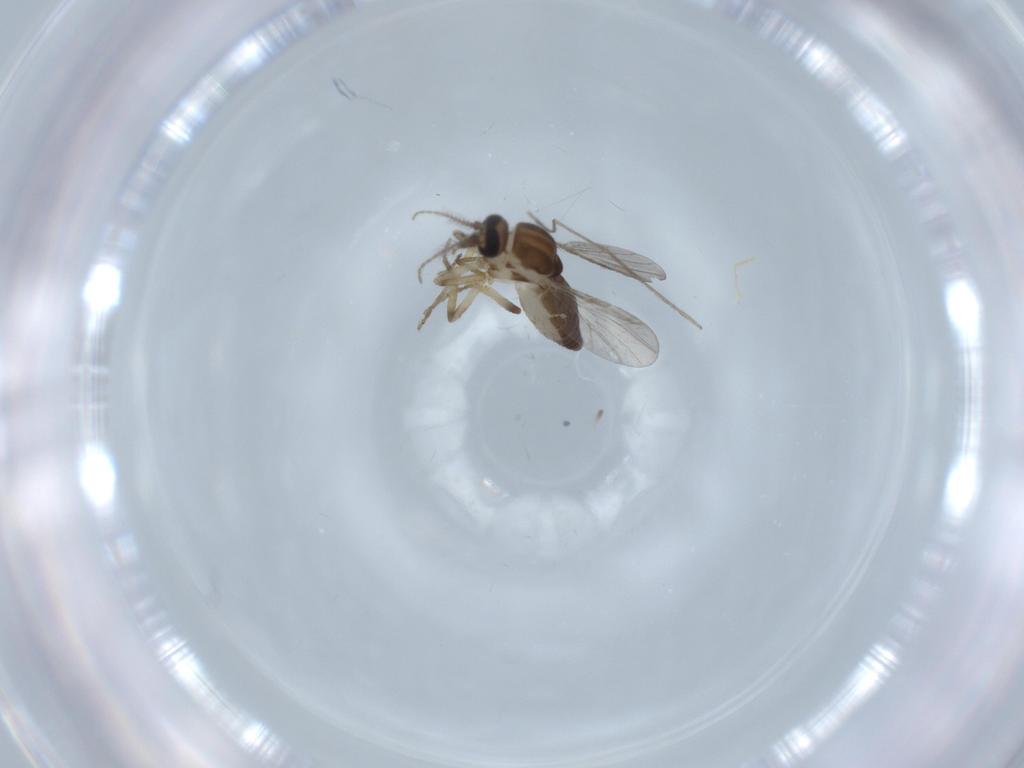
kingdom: Animalia
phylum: Arthropoda
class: Insecta
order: Diptera
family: Ceratopogonidae
